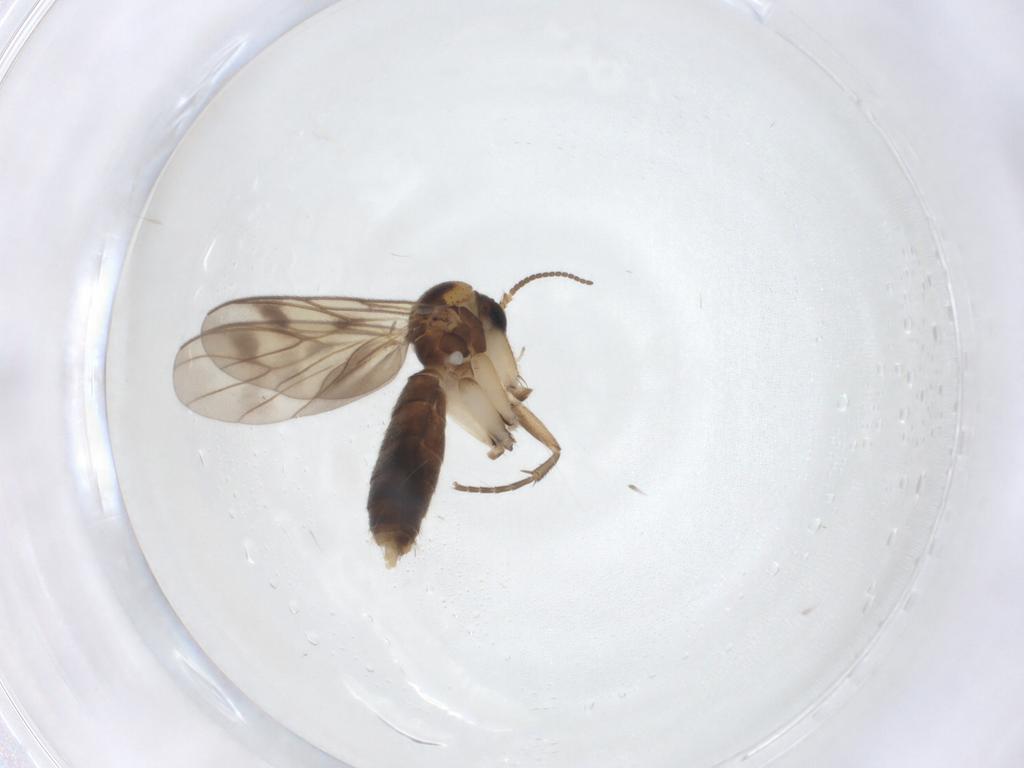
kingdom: Animalia
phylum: Arthropoda
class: Insecta
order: Diptera
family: Mycetophilidae
